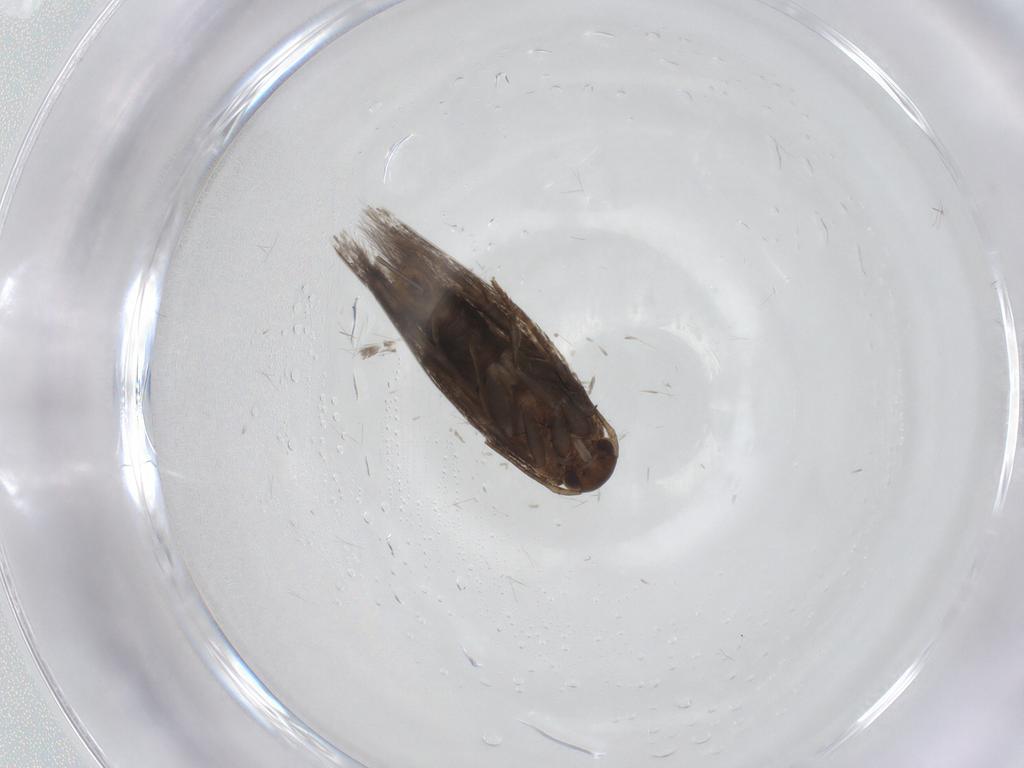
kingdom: Animalia
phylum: Arthropoda
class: Insecta
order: Lepidoptera
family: Elachistidae
